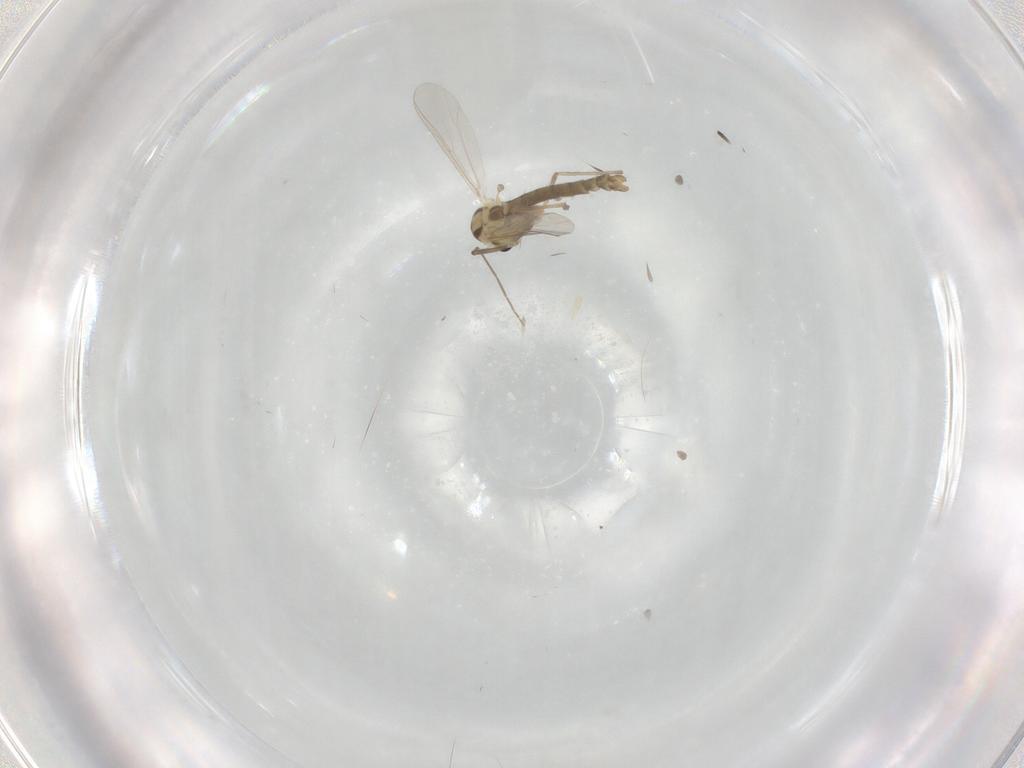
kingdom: Animalia
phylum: Arthropoda
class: Insecta
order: Diptera
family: Chironomidae
